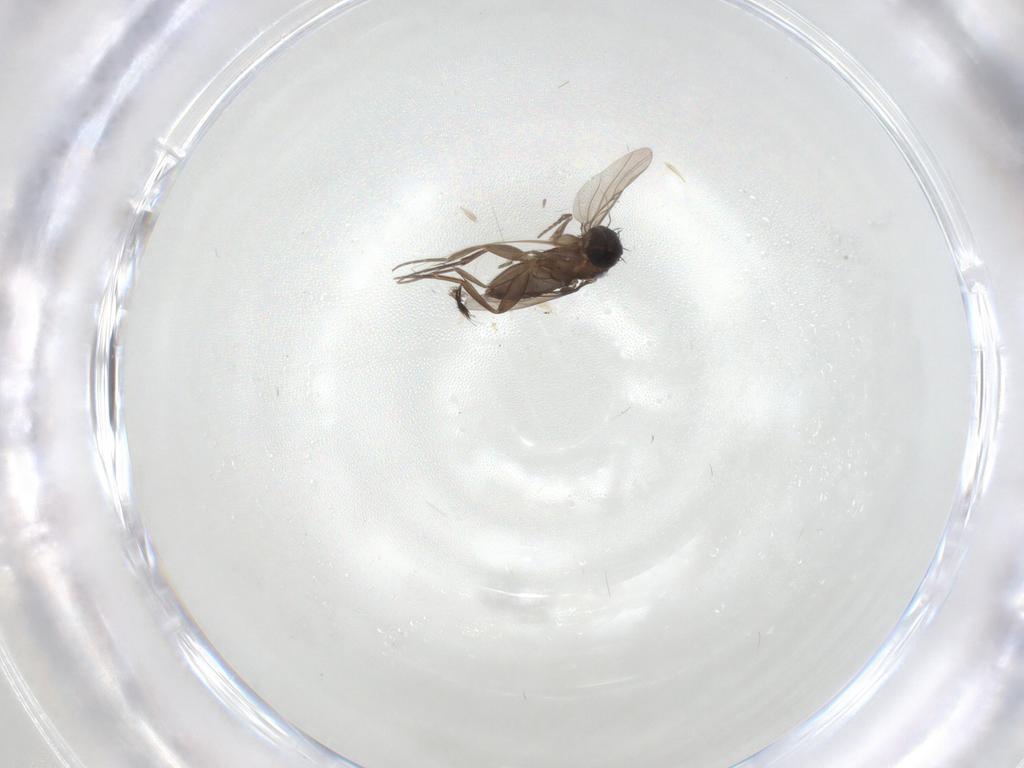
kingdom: Animalia
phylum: Arthropoda
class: Insecta
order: Diptera
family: Phoridae
